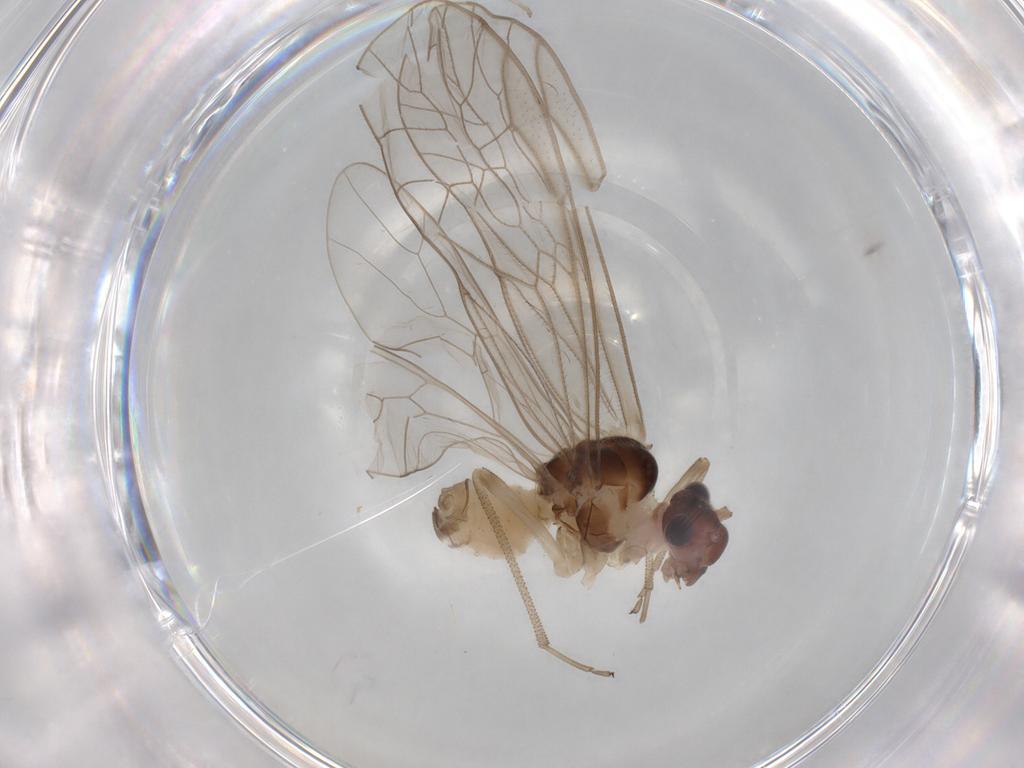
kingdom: Animalia
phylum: Arthropoda
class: Insecta
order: Psocodea
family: Stenopsocidae
